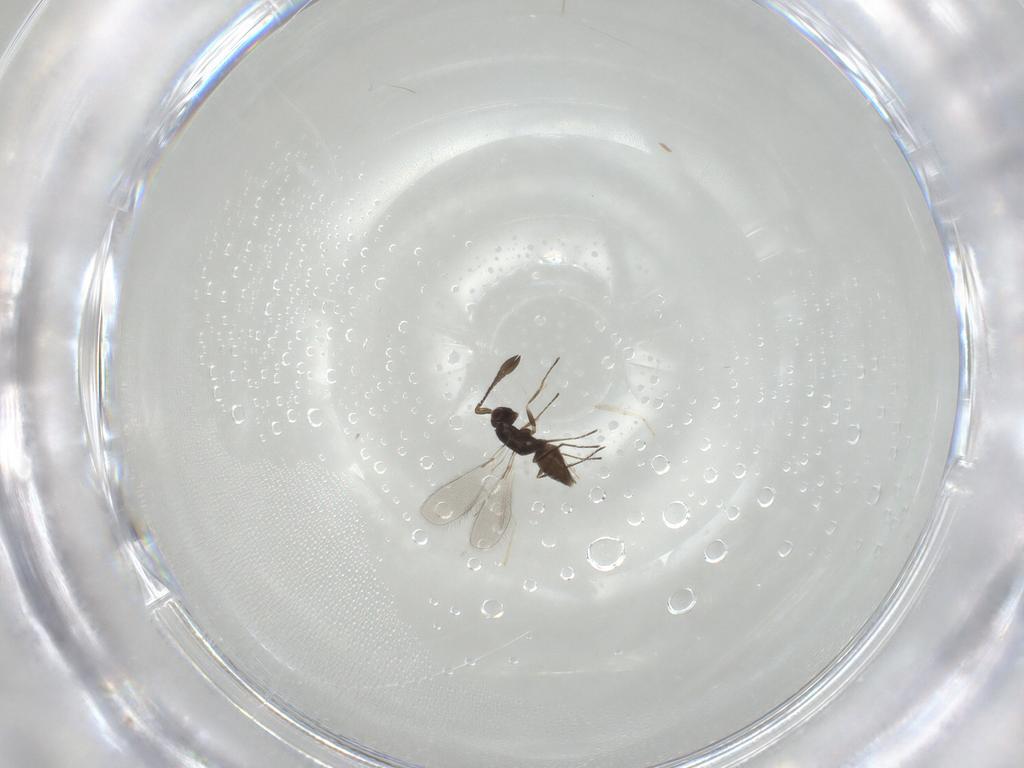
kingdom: Animalia
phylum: Arthropoda
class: Insecta
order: Hymenoptera
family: Mymaridae
